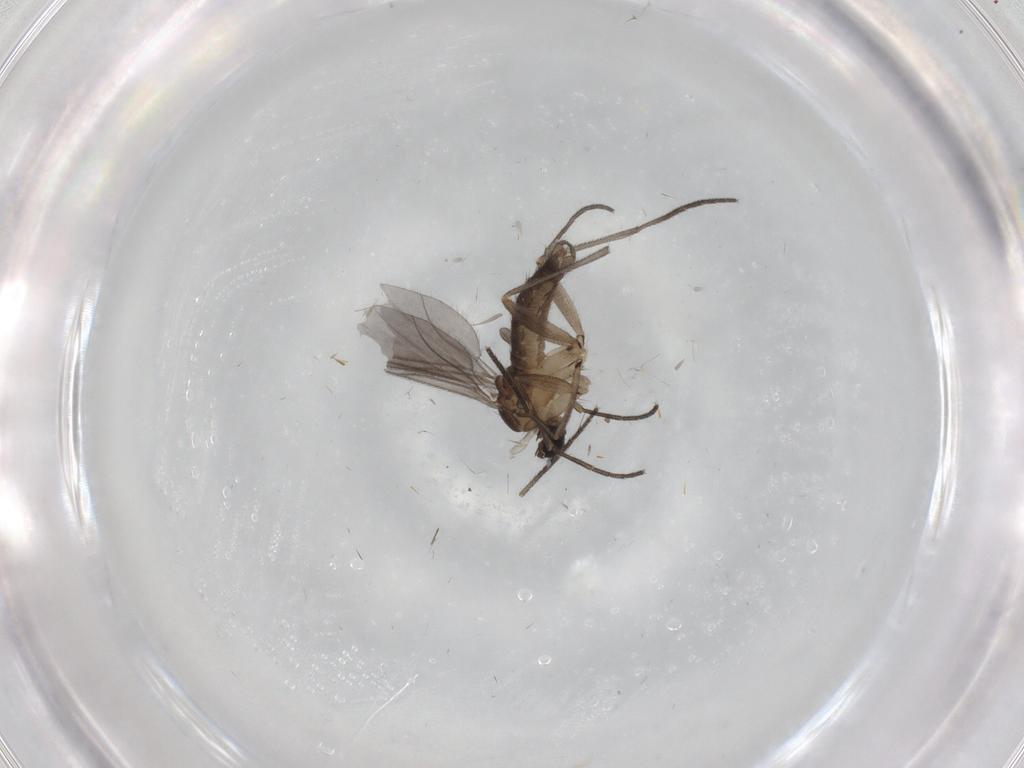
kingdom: Animalia
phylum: Arthropoda
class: Insecta
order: Diptera
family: Sciaridae
